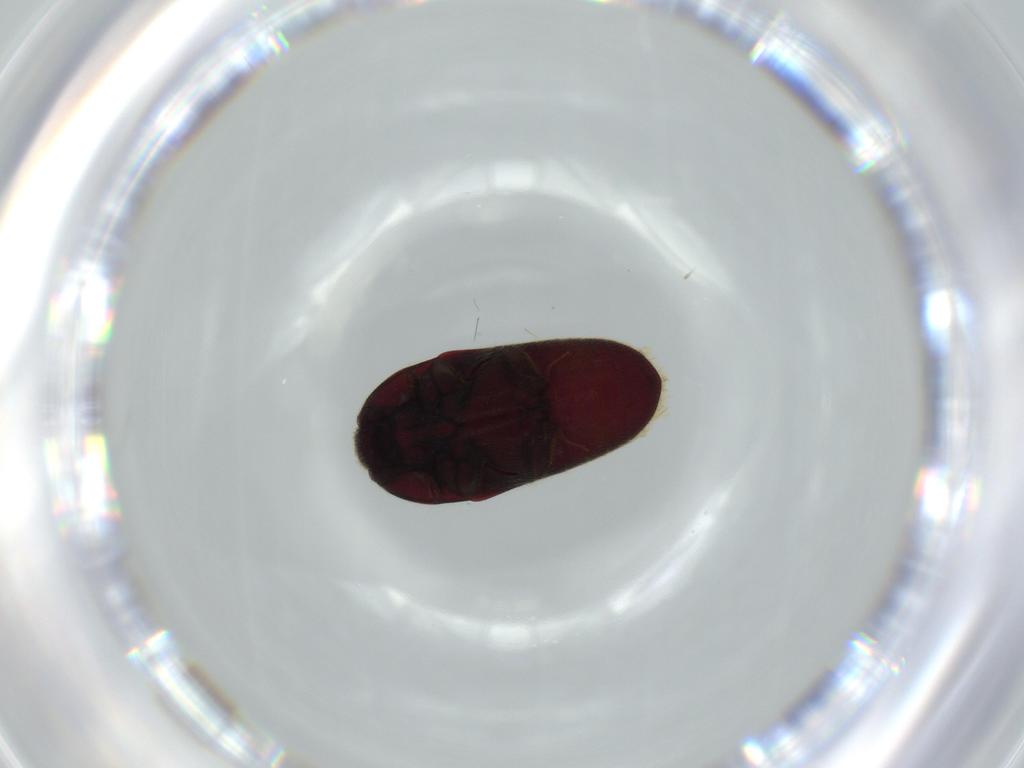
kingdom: Animalia
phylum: Arthropoda
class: Insecta
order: Coleoptera
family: Throscidae
